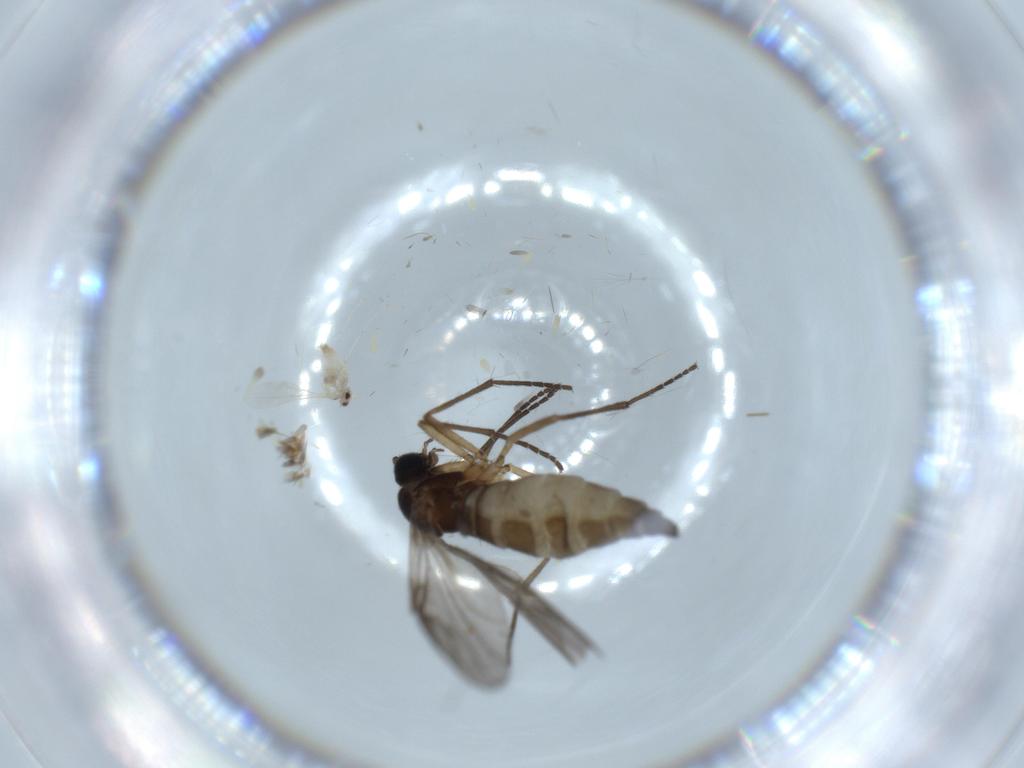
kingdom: Animalia
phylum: Arthropoda
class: Insecta
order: Diptera
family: Sciaridae
